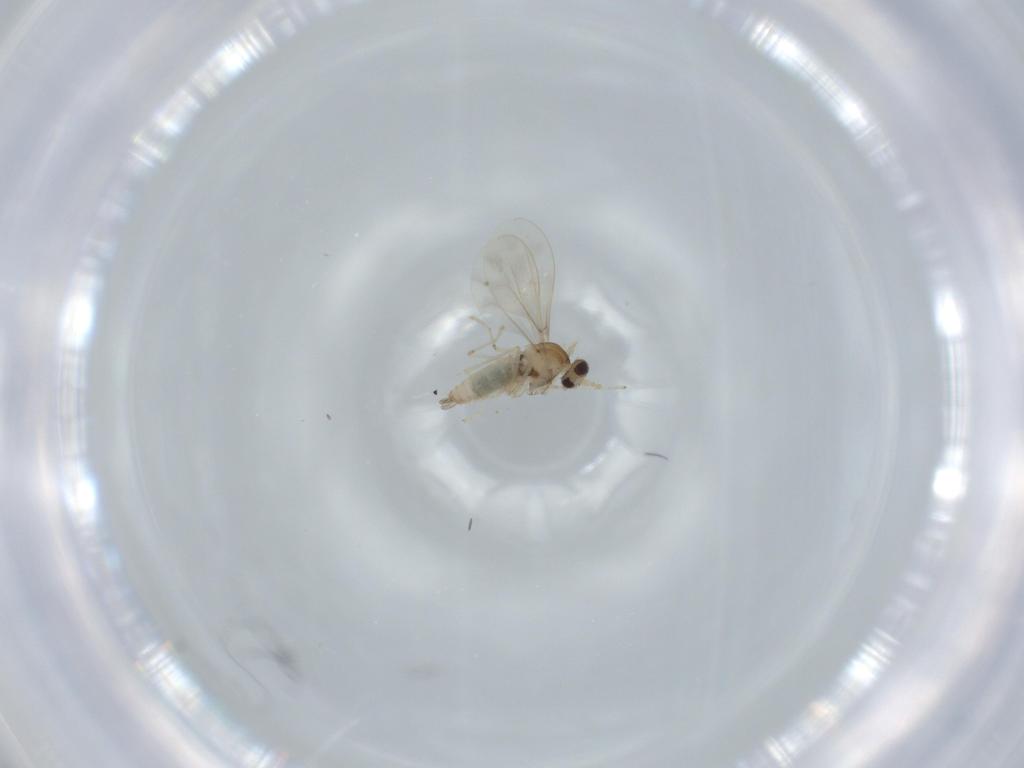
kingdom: Animalia
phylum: Arthropoda
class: Insecta
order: Diptera
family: Cecidomyiidae
